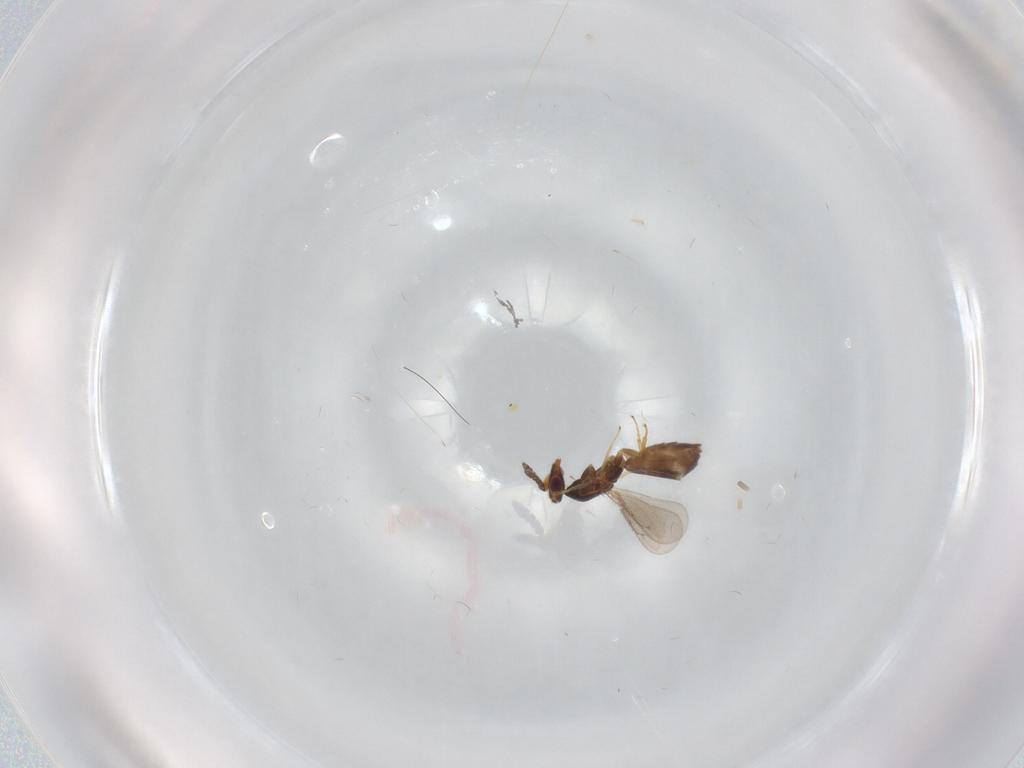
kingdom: Animalia
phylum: Arthropoda
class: Insecta
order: Hymenoptera
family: Eulophidae
